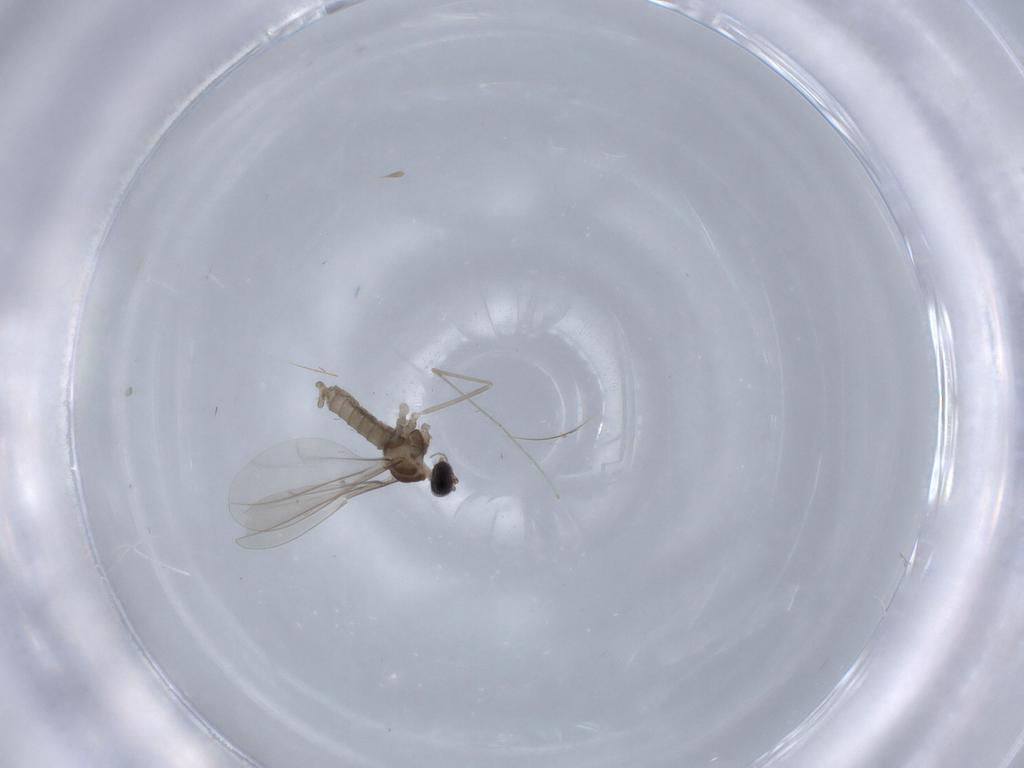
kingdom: Animalia
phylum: Arthropoda
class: Insecta
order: Diptera
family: Cecidomyiidae
